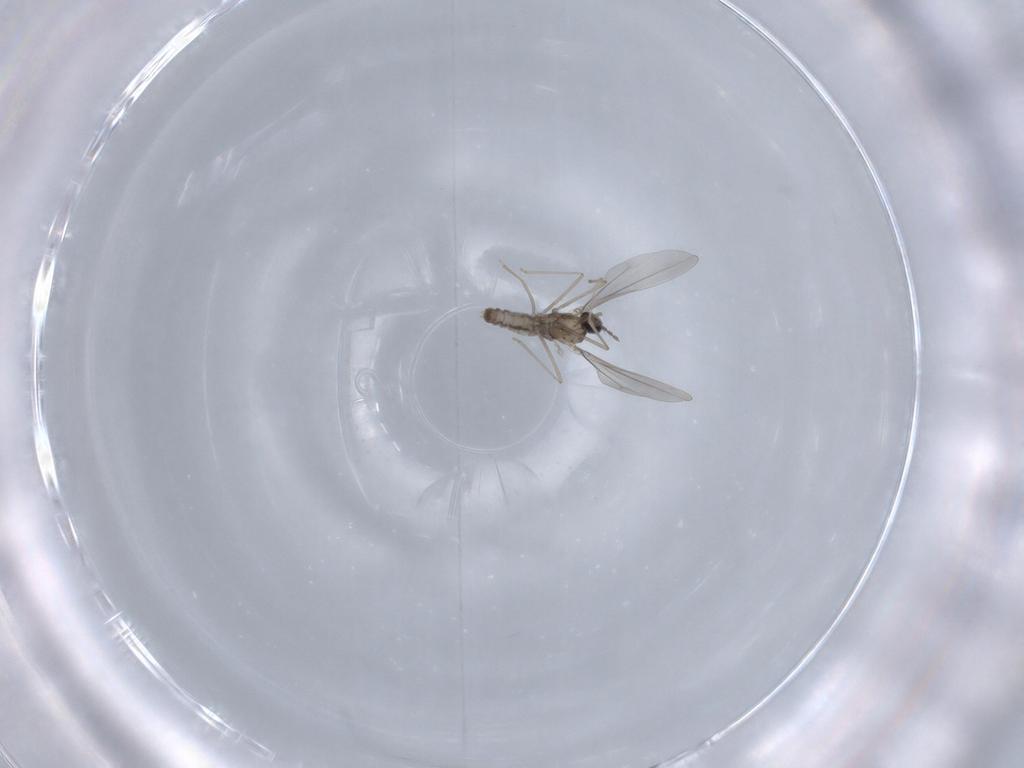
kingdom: Animalia
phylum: Arthropoda
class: Insecta
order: Diptera
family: Cecidomyiidae
